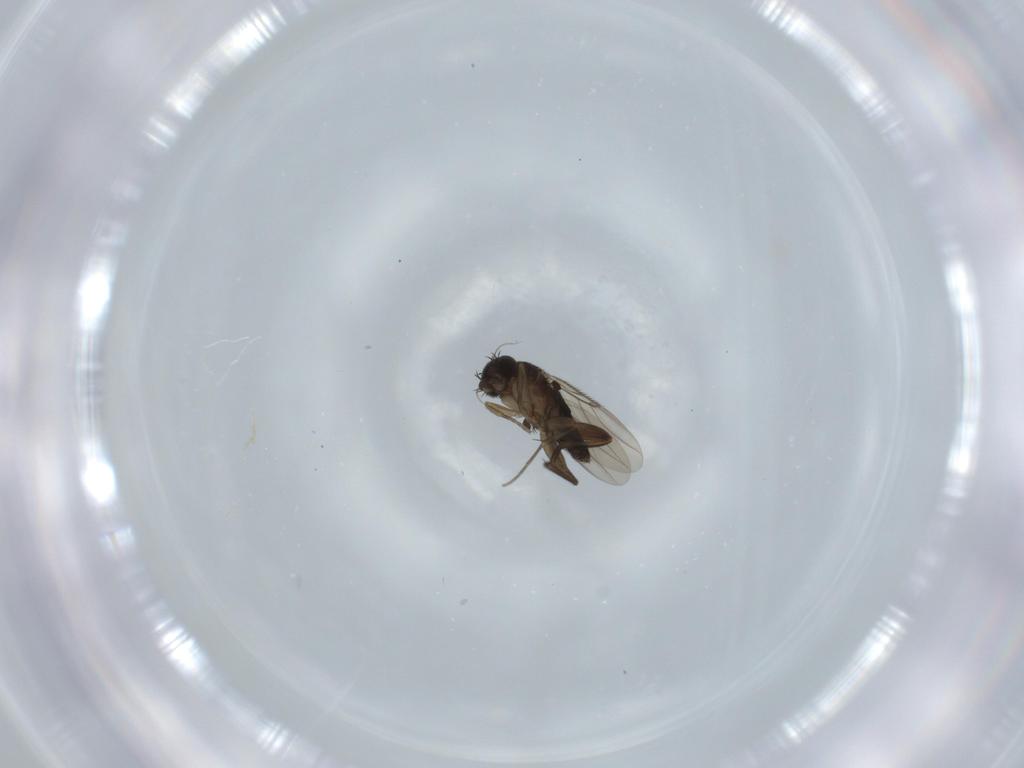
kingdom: Animalia
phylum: Arthropoda
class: Insecta
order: Diptera
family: Phoridae
